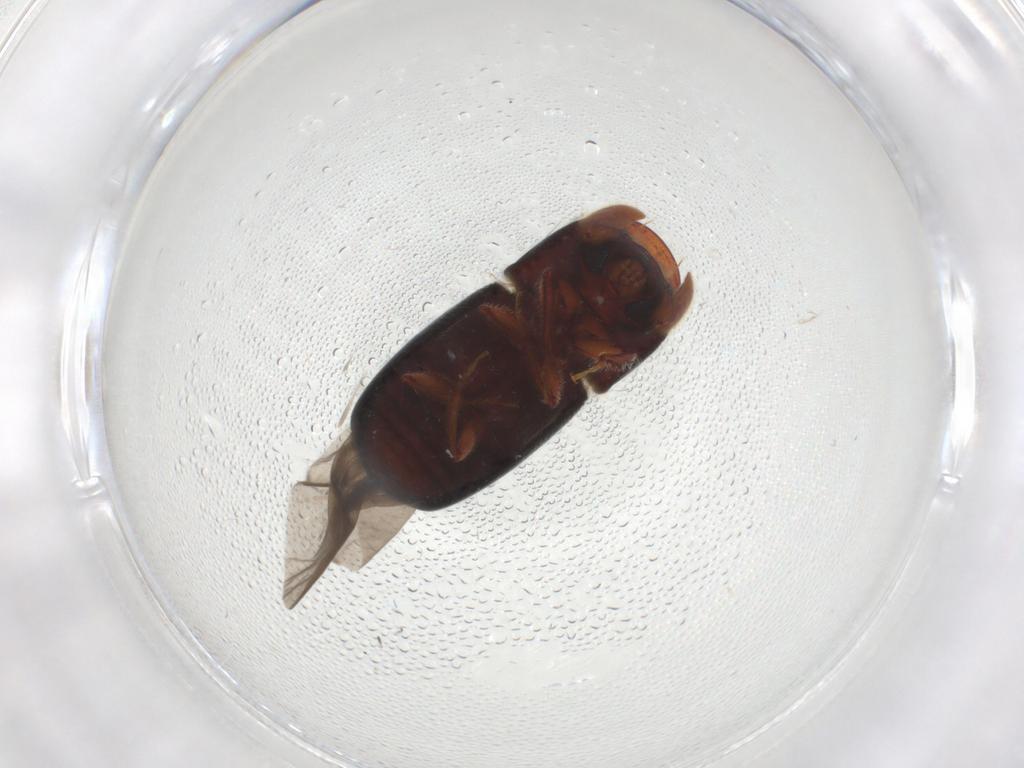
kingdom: Animalia
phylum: Arthropoda
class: Insecta
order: Coleoptera
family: Curculionidae
